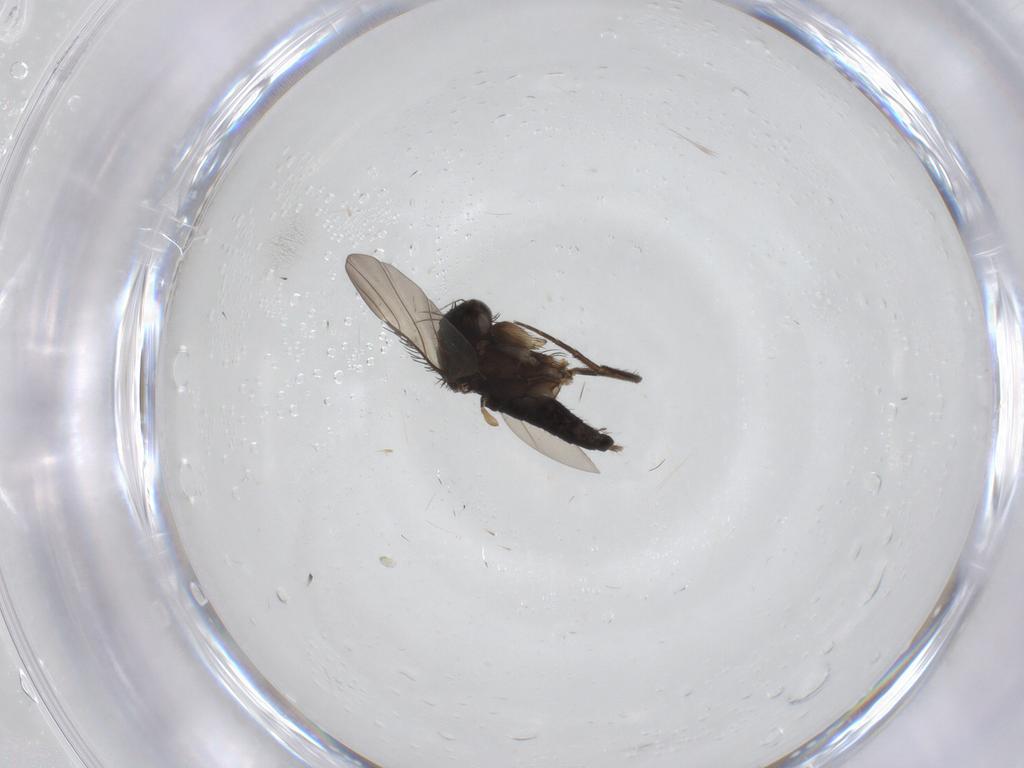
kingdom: Animalia
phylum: Arthropoda
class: Insecta
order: Diptera
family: Phoridae
